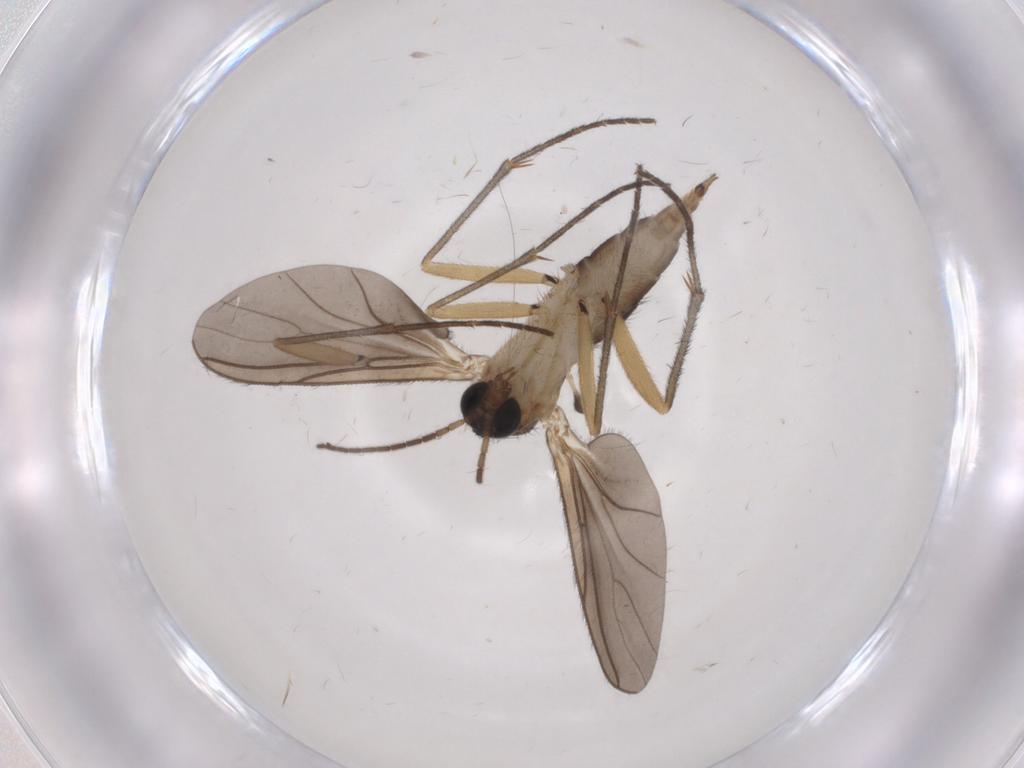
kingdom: Animalia
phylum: Arthropoda
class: Insecta
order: Diptera
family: Sciaridae
